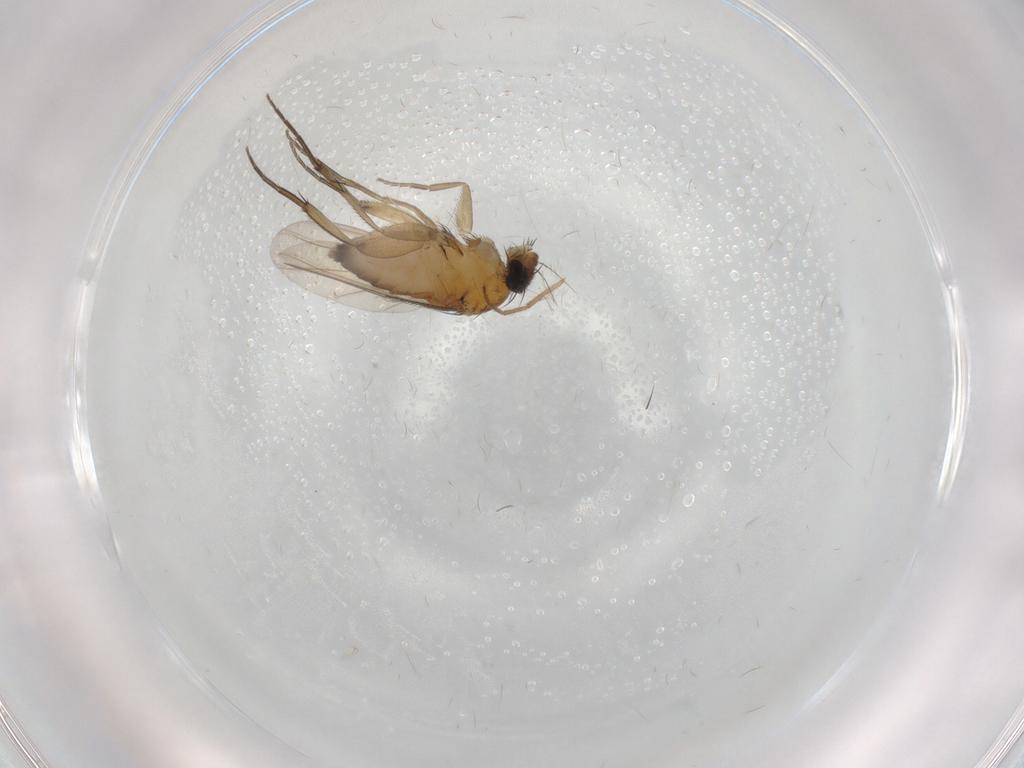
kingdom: Animalia
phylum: Arthropoda
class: Insecta
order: Diptera
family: Phoridae
